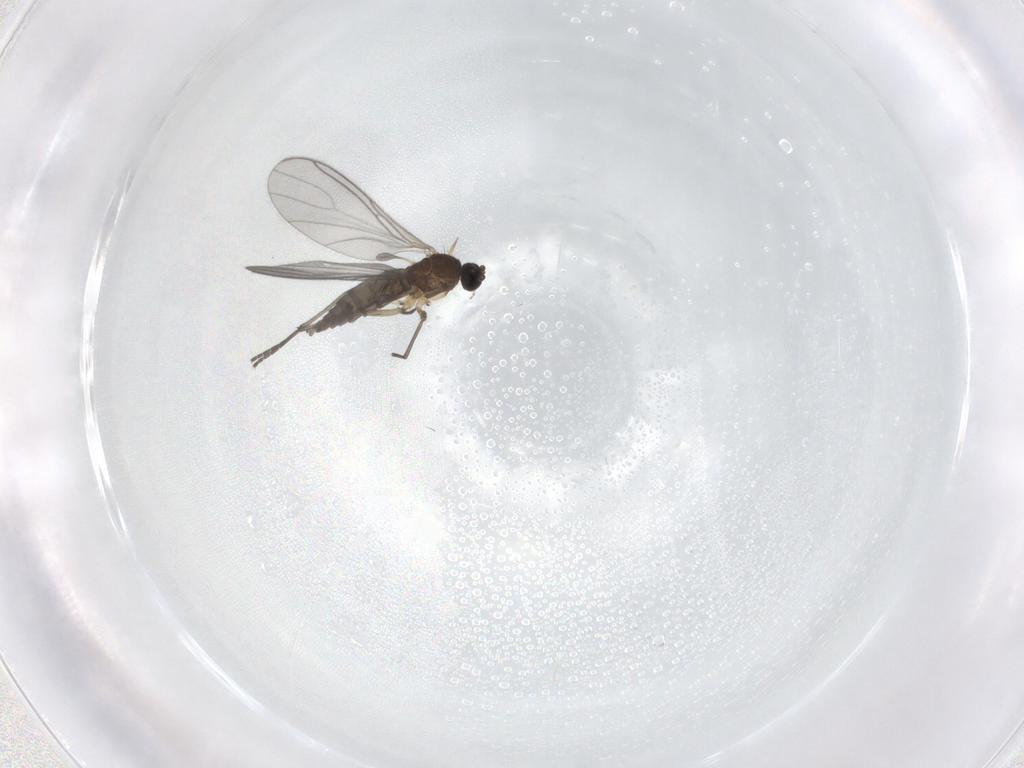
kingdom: Animalia
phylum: Arthropoda
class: Insecta
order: Diptera
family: Sciaridae
